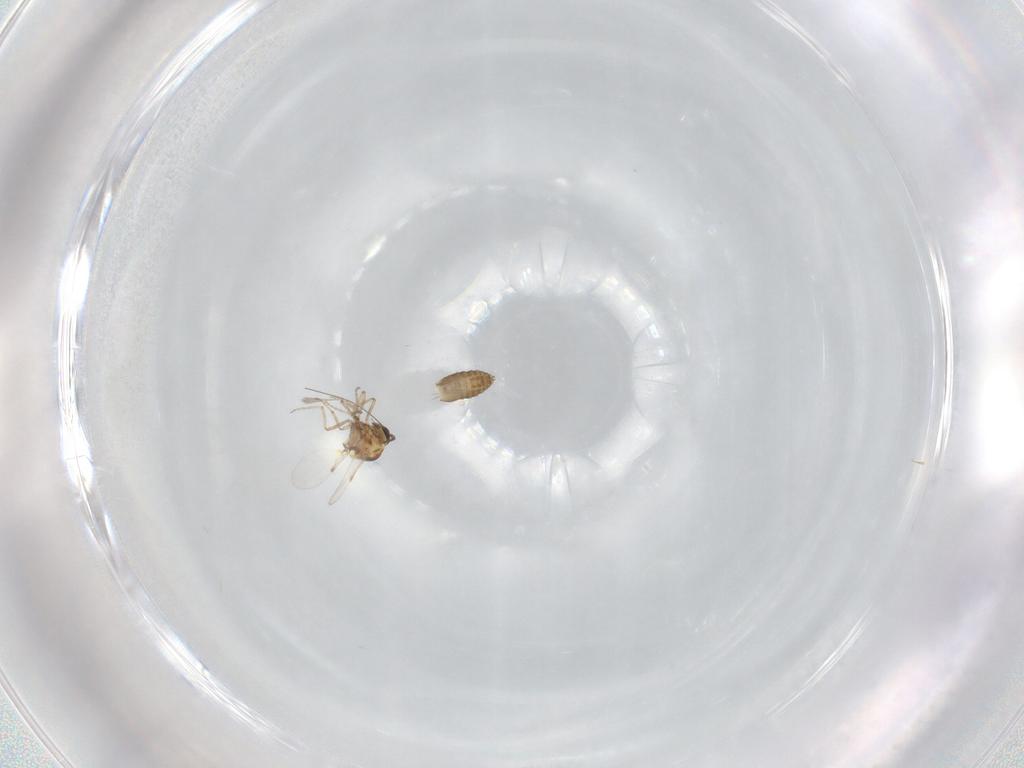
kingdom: Animalia
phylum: Arthropoda
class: Insecta
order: Diptera
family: Ceratopogonidae
